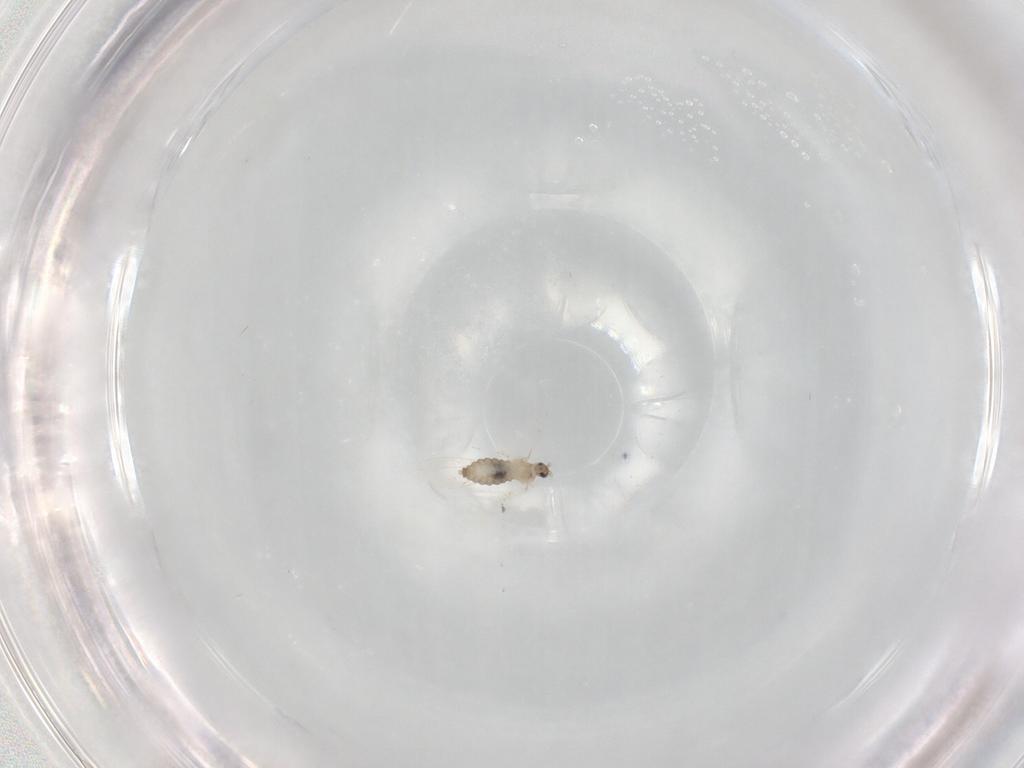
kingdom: Animalia
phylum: Arthropoda
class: Insecta
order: Diptera
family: Cecidomyiidae
